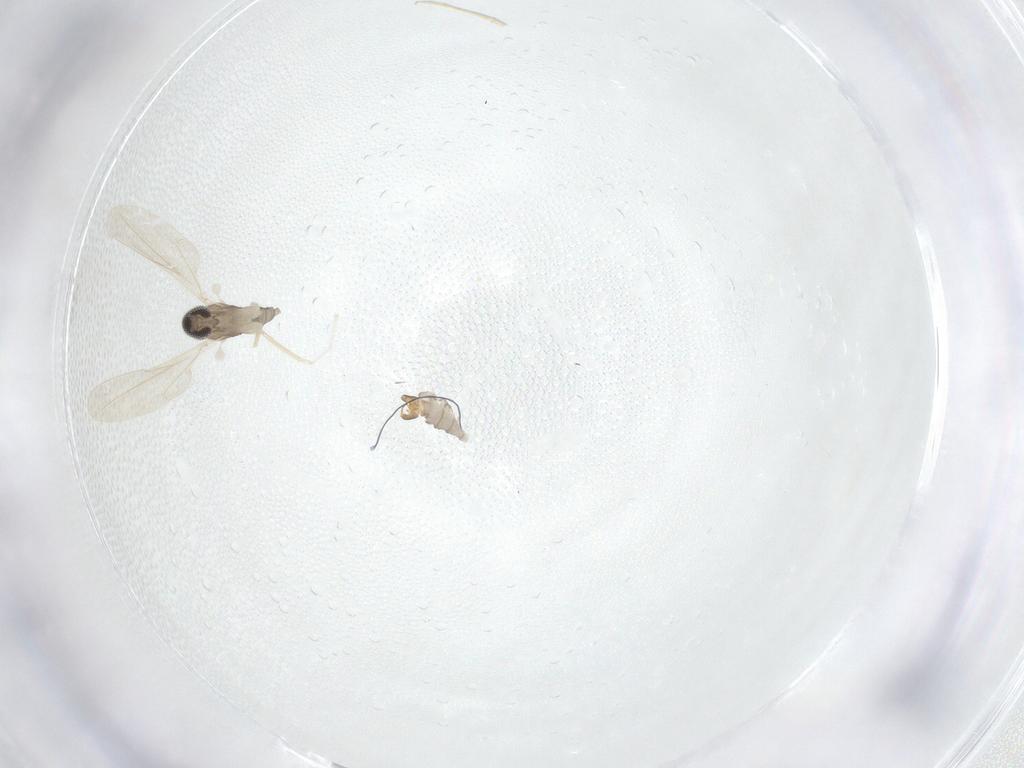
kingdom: Animalia
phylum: Arthropoda
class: Insecta
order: Diptera
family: Cecidomyiidae
